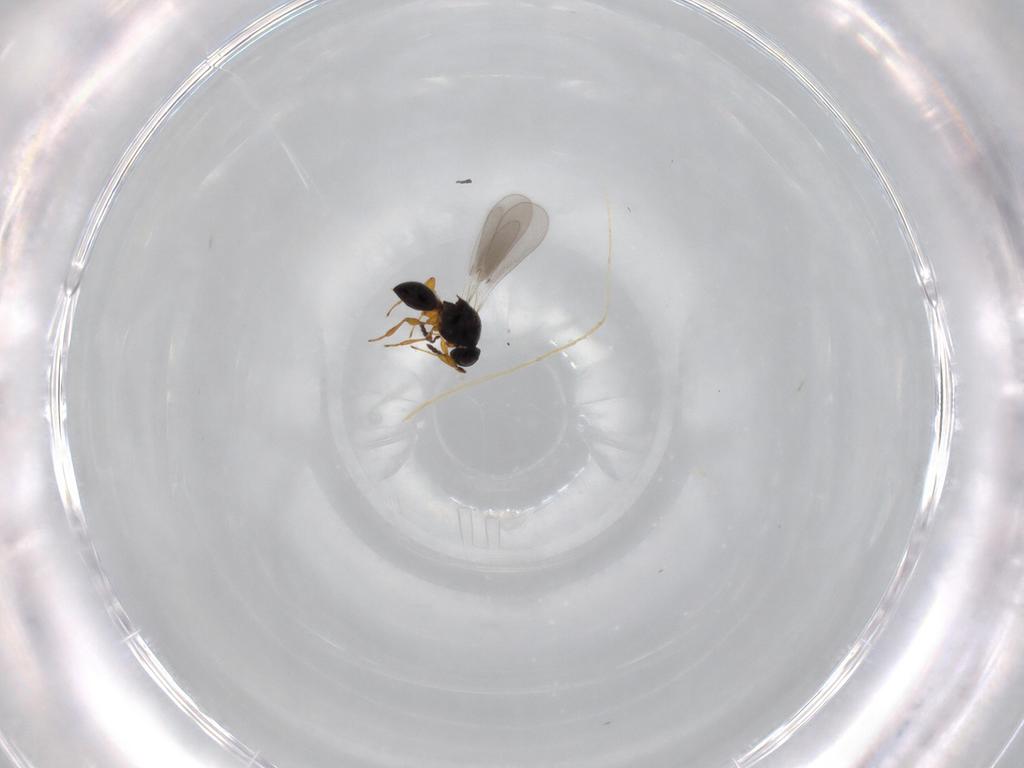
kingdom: Animalia
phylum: Arthropoda
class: Insecta
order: Hymenoptera
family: Platygastridae
